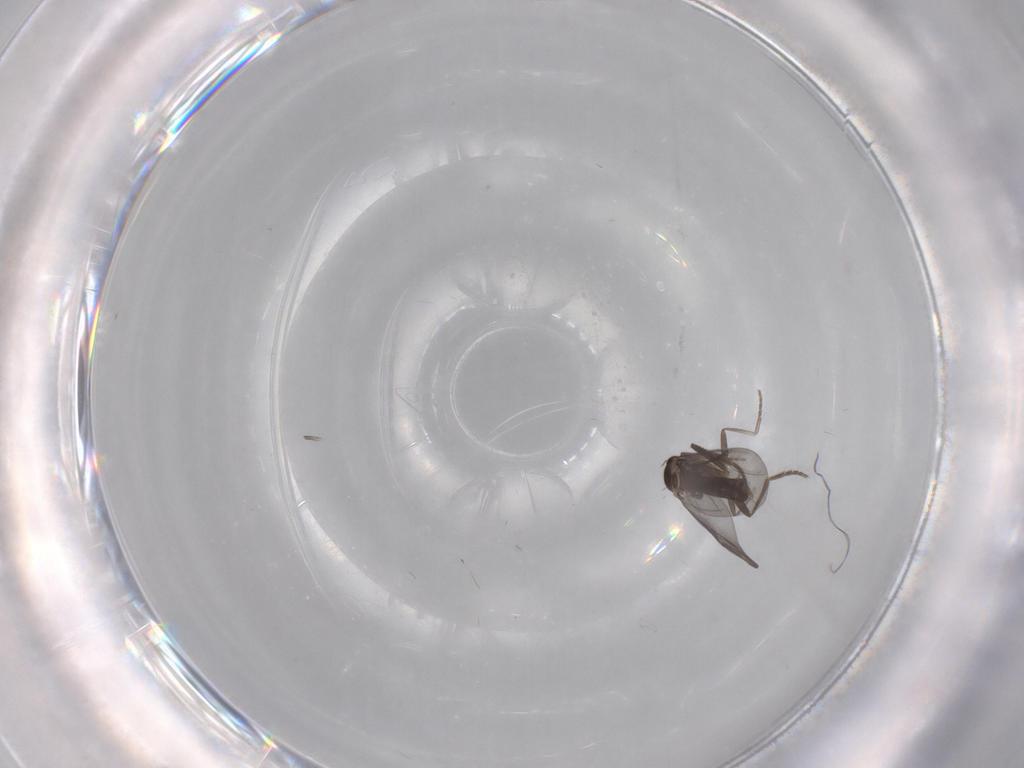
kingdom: Animalia
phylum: Arthropoda
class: Insecta
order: Diptera
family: Phoridae
